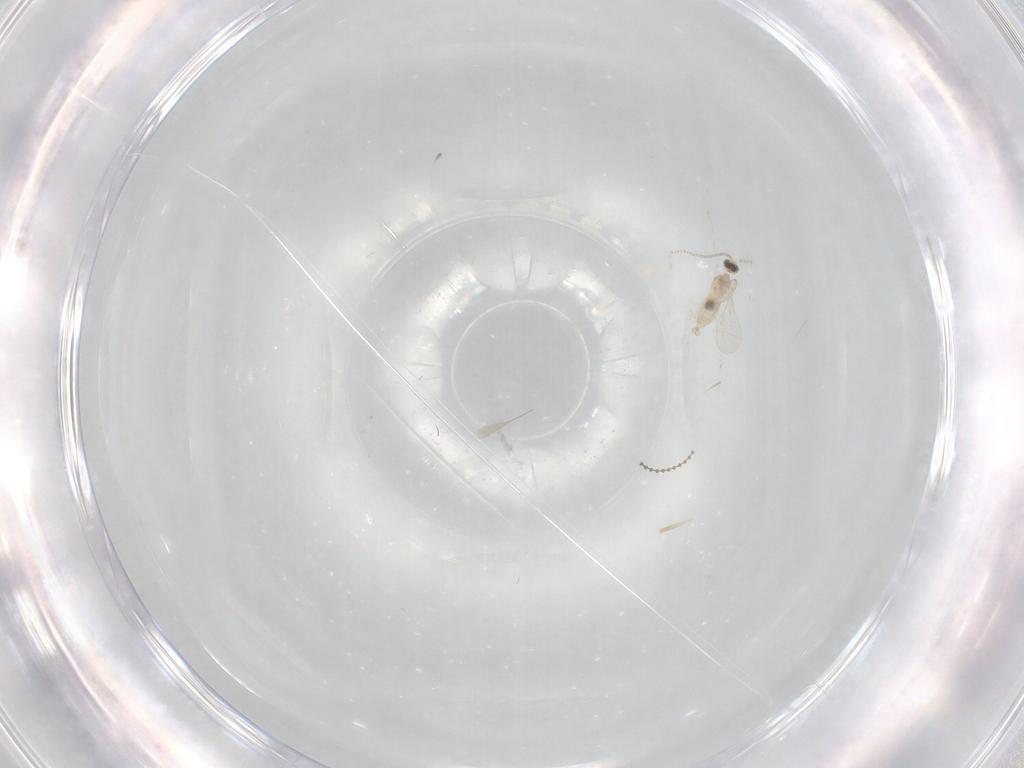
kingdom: Animalia
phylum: Arthropoda
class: Insecta
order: Diptera
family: Cecidomyiidae
